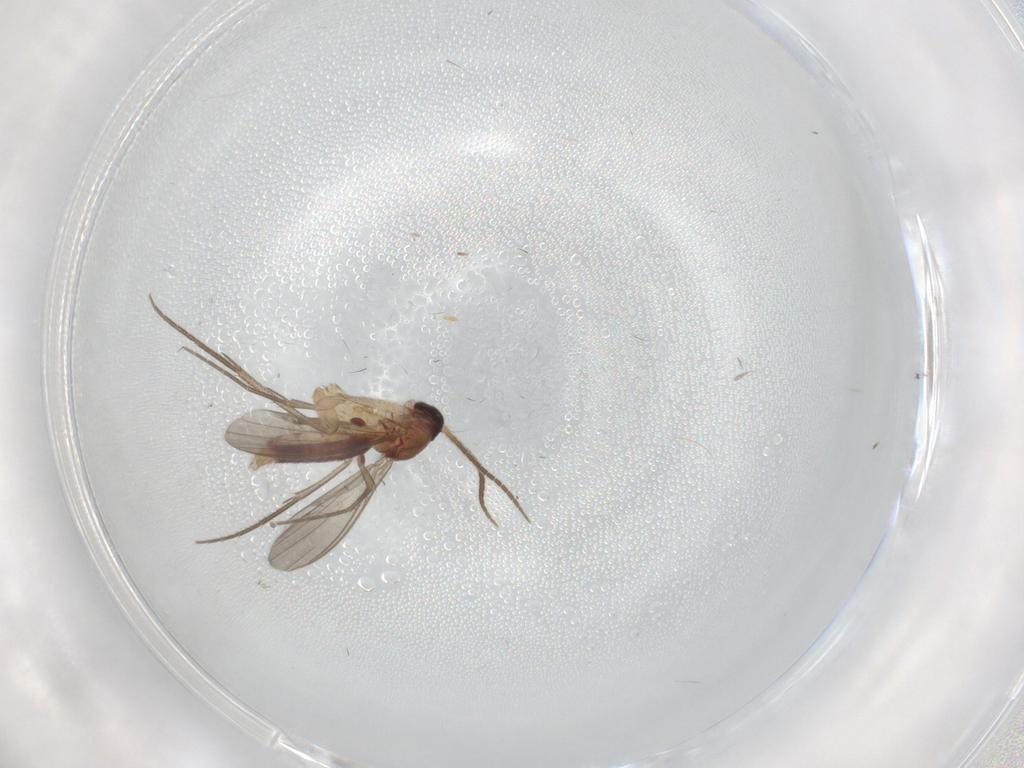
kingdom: Animalia
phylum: Arthropoda
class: Insecta
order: Diptera
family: Mycetophilidae
